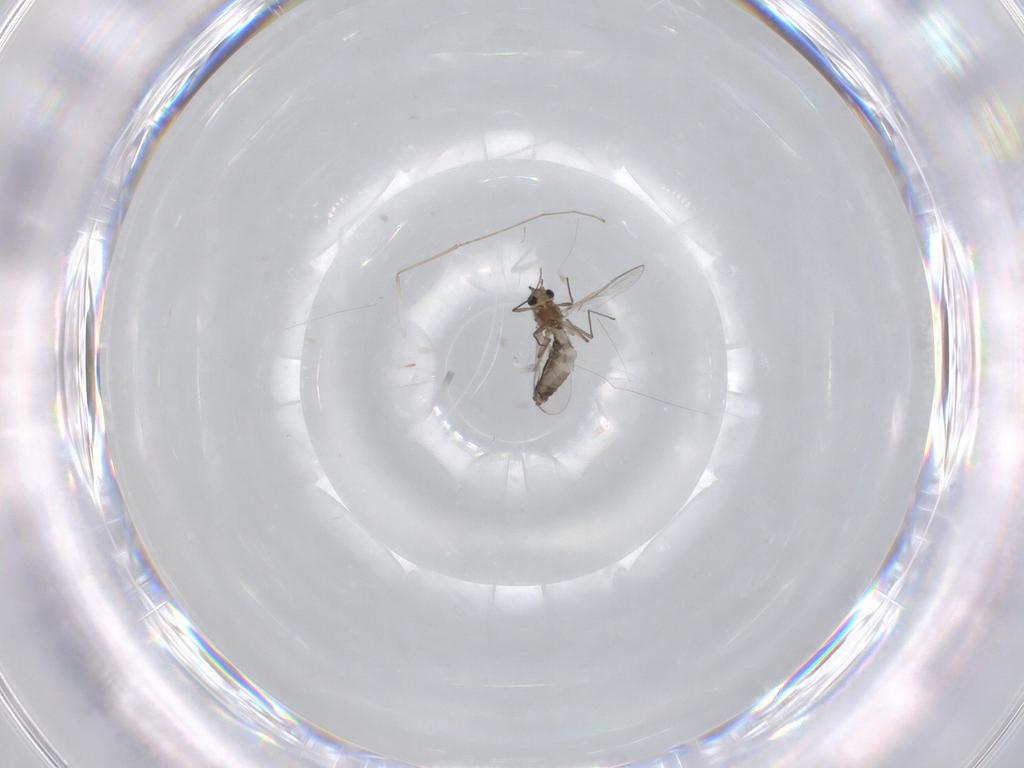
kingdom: Animalia
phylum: Arthropoda
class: Insecta
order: Diptera
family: Chironomidae
